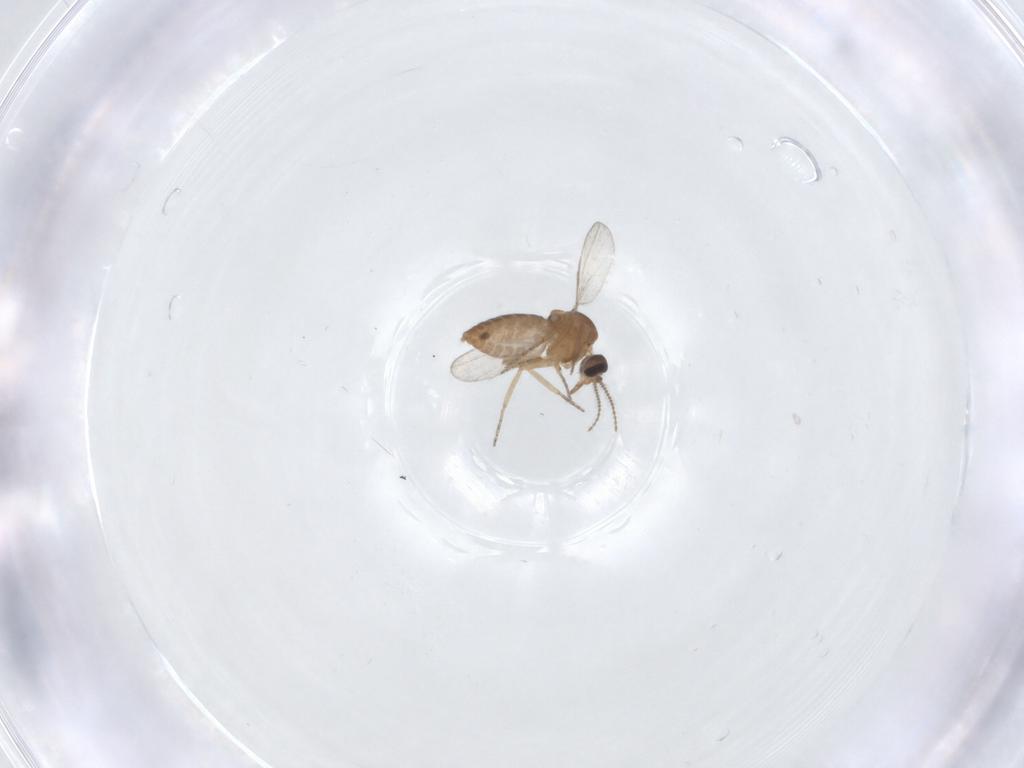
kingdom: Animalia
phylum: Arthropoda
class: Insecta
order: Diptera
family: Ceratopogonidae
